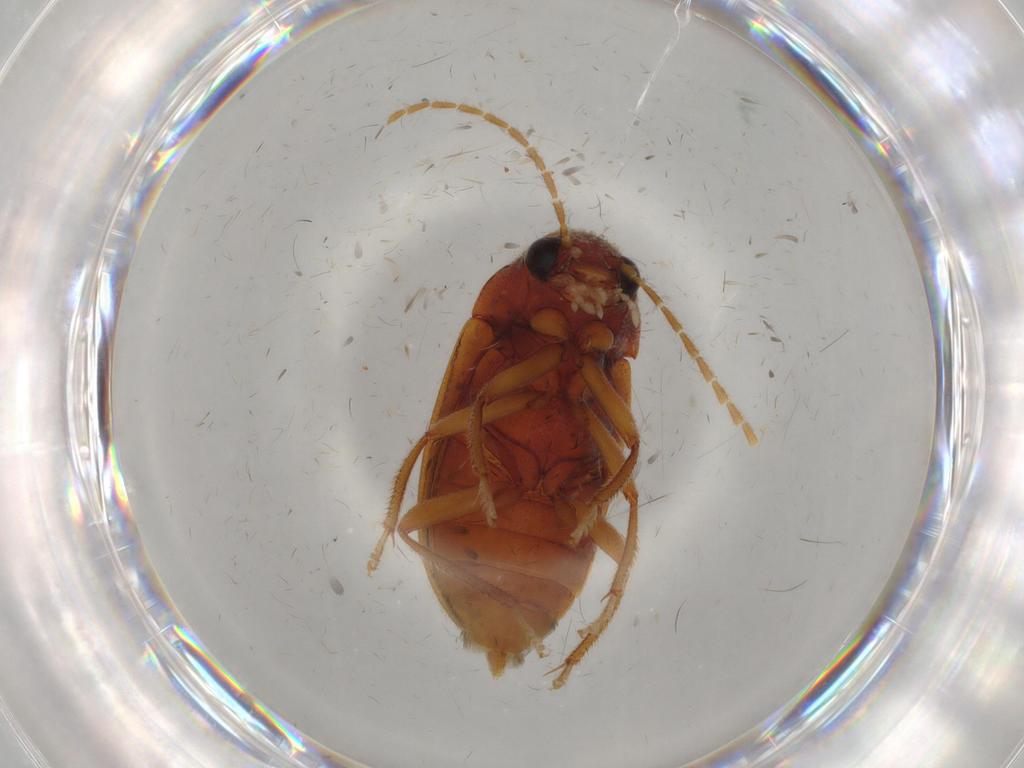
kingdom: Animalia
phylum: Arthropoda
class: Insecta
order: Coleoptera
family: Ptilodactylidae
